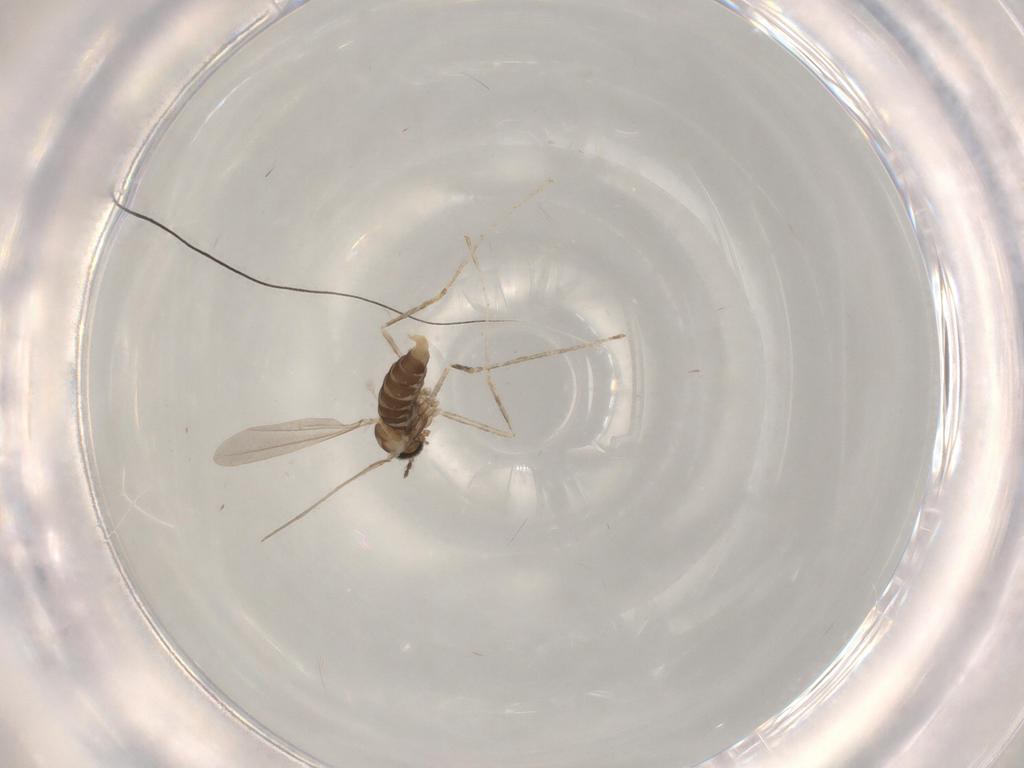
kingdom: Animalia
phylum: Arthropoda
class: Insecta
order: Diptera
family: Cecidomyiidae
